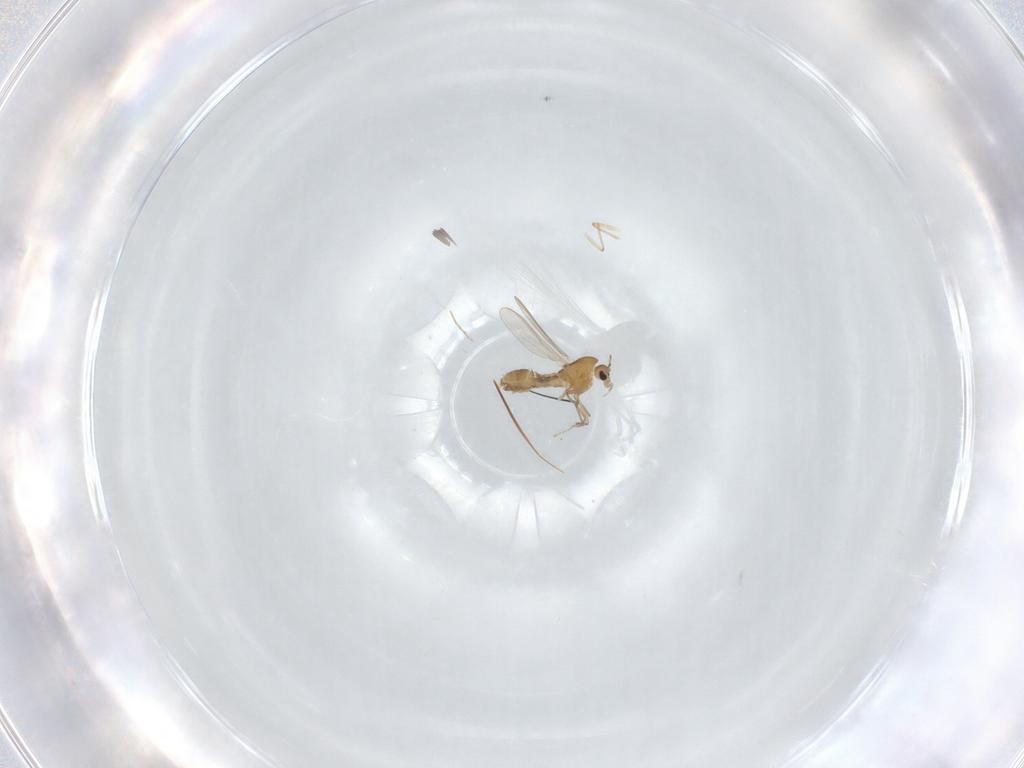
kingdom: Animalia
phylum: Arthropoda
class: Insecta
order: Diptera
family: Chironomidae
